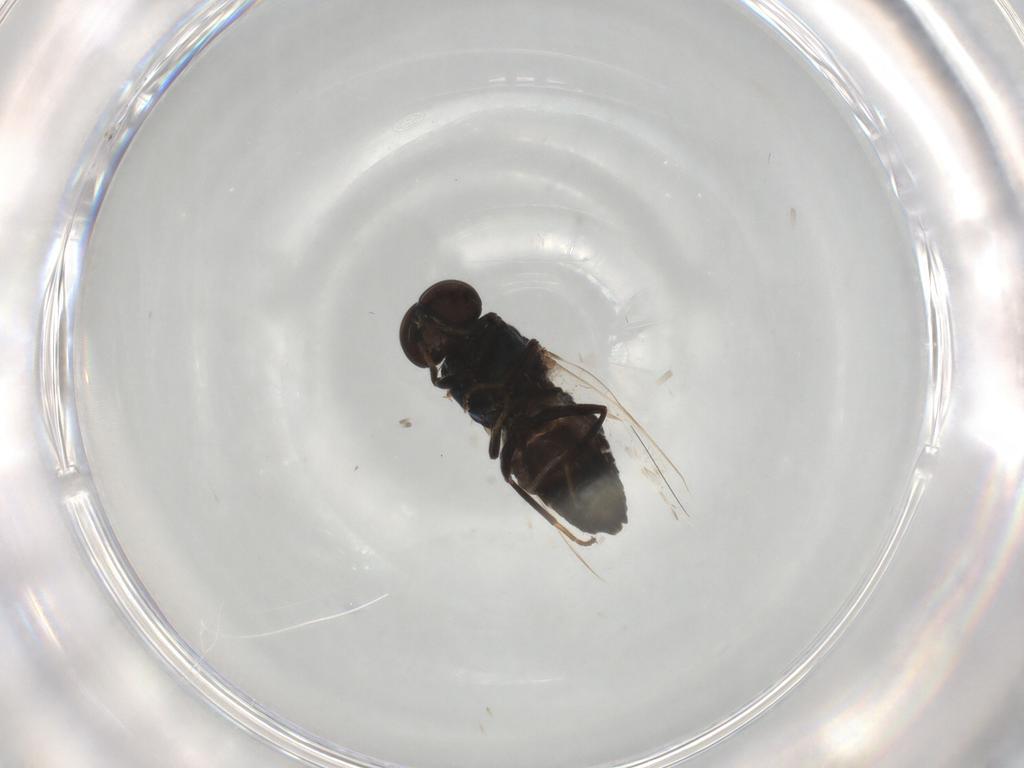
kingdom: Animalia
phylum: Arthropoda
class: Insecta
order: Diptera
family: Scenopinidae
